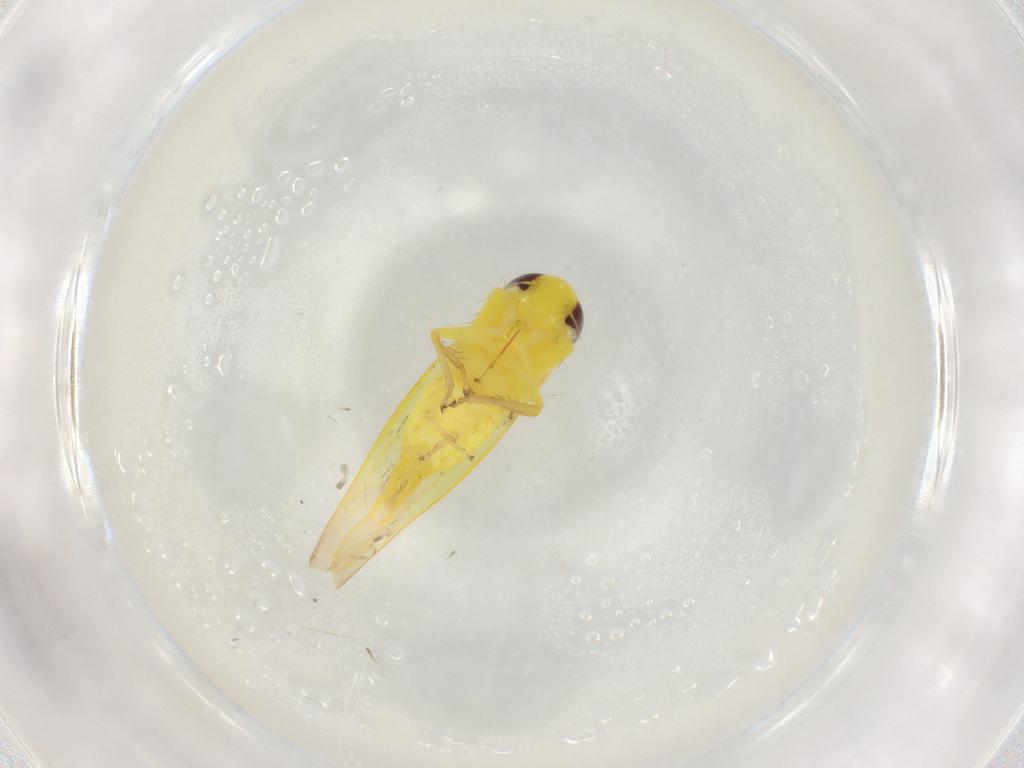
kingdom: Animalia
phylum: Arthropoda
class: Insecta
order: Hemiptera
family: Cicadellidae
